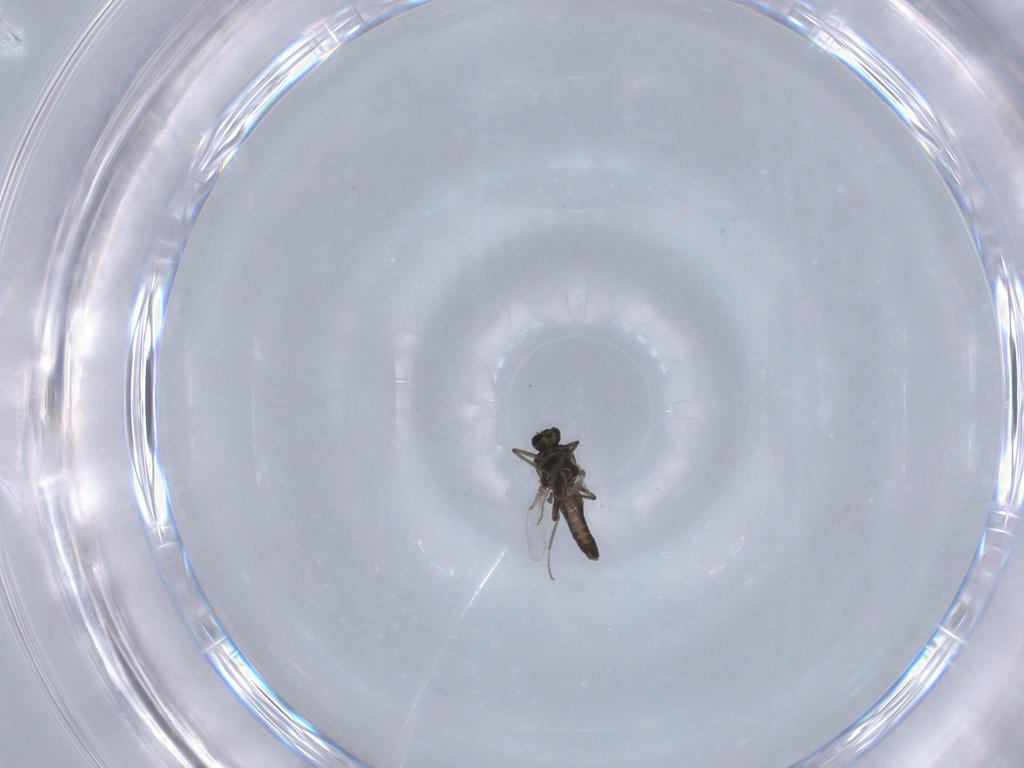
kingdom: Animalia
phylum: Arthropoda
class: Insecta
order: Diptera
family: Ceratopogonidae
